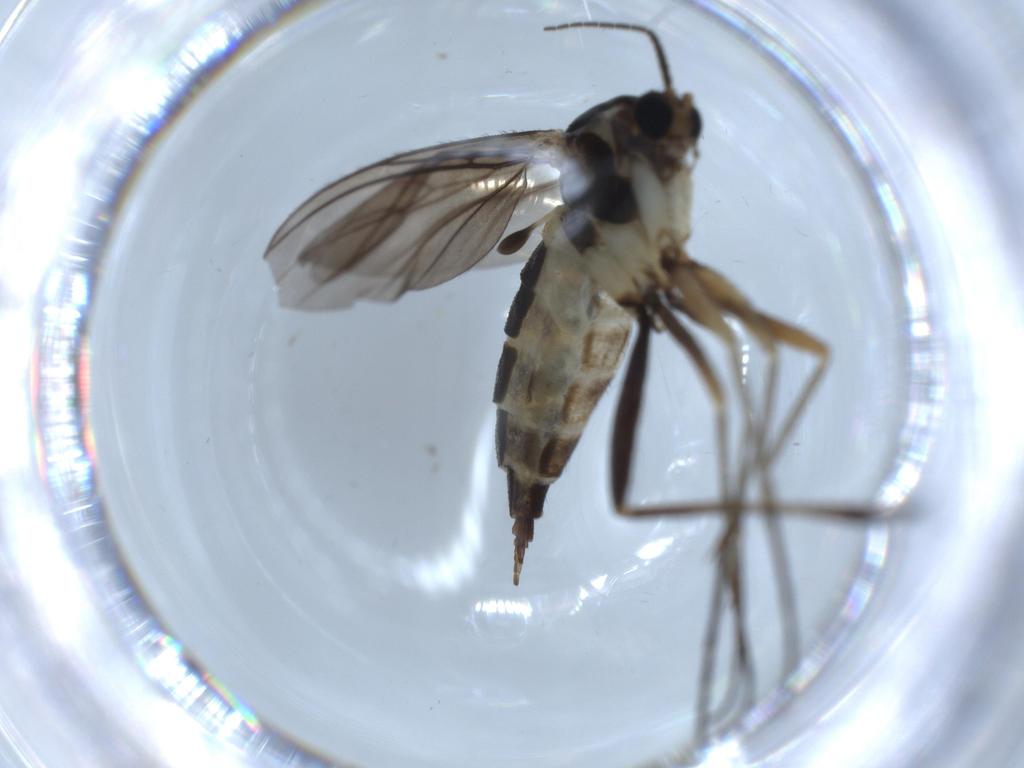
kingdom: Animalia
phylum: Arthropoda
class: Insecta
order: Diptera
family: Sciaridae
